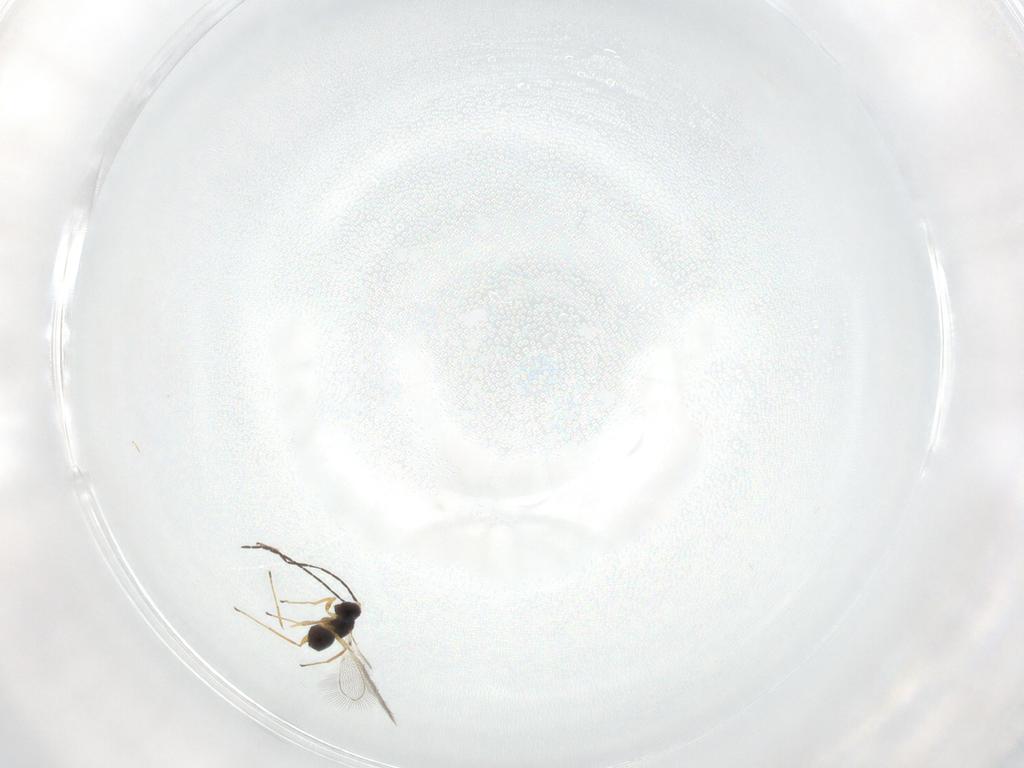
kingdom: Animalia
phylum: Arthropoda
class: Insecta
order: Hymenoptera
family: Mymaridae
